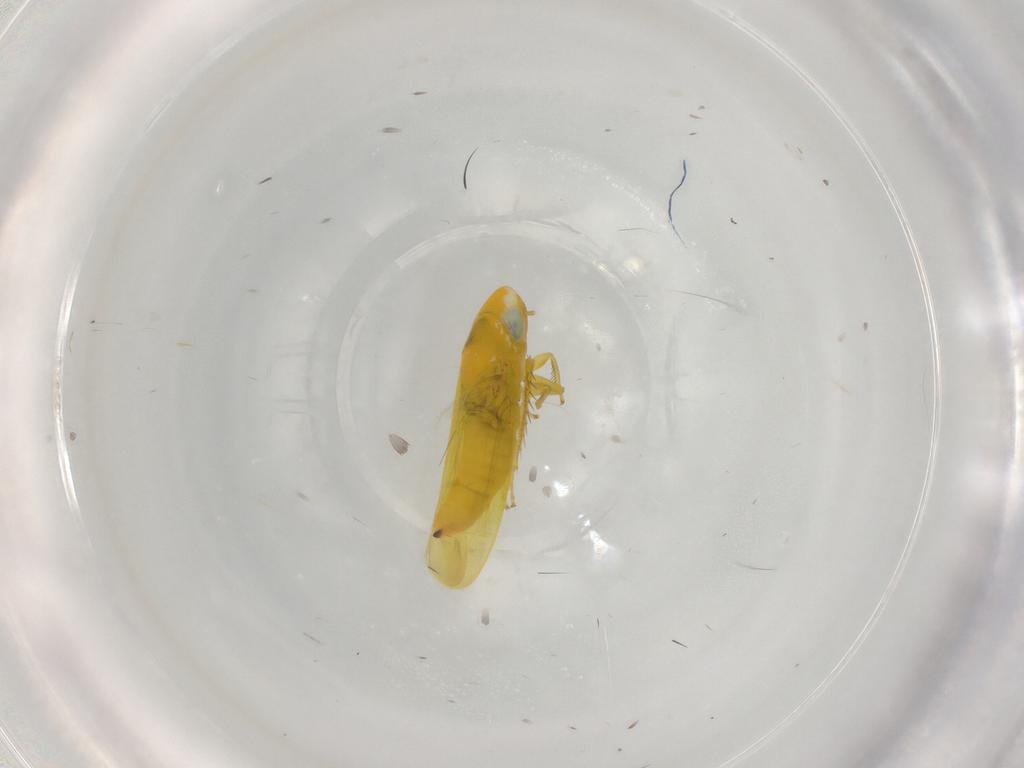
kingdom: Animalia
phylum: Arthropoda
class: Insecta
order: Hemiptera
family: Cicadellidae
